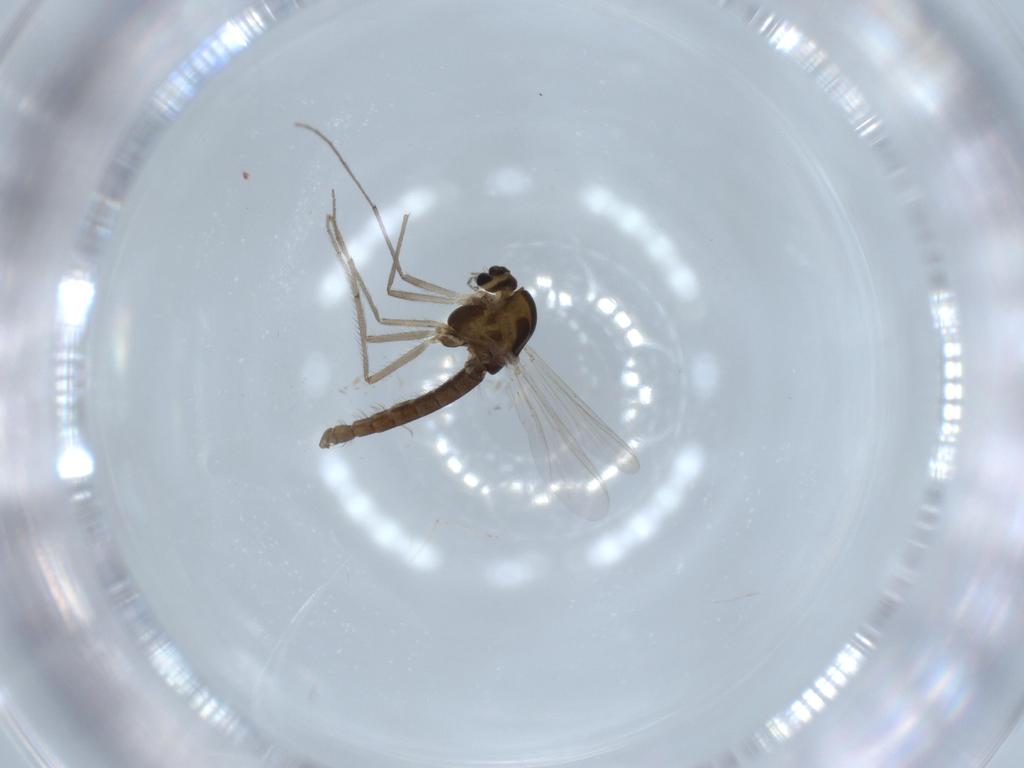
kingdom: Animalia
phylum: Arthropoda
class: Insecta
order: Diptera
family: Chironomidae
